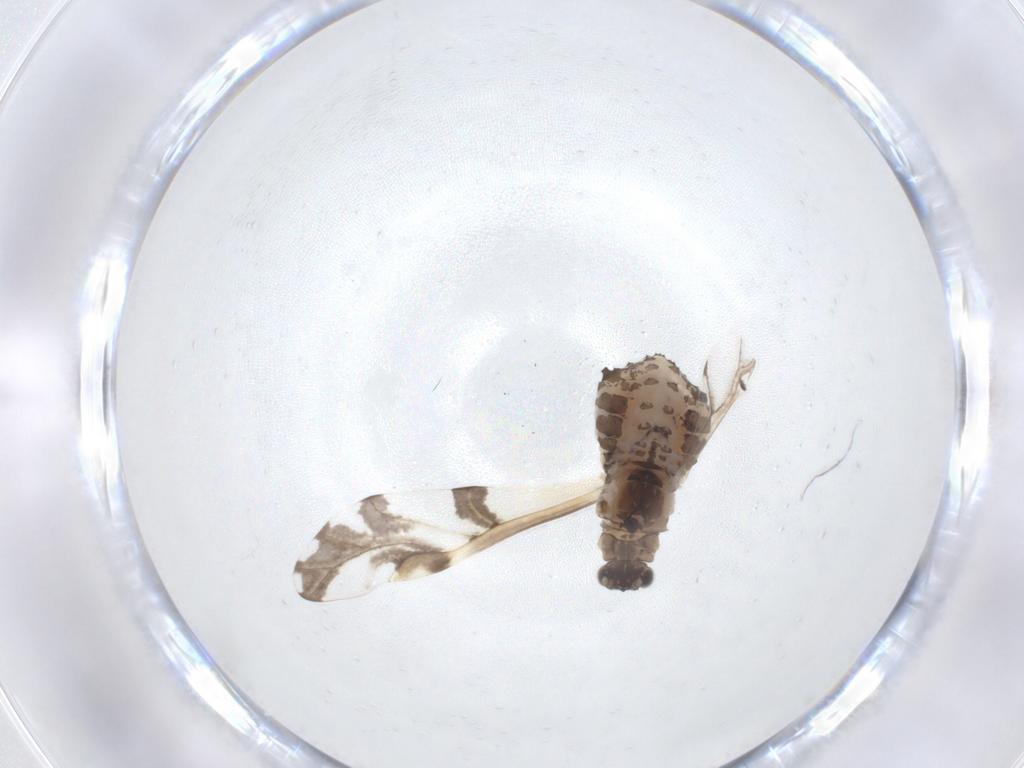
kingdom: Animalia
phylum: Arthropoda
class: Insecta
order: Hemiptera
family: Aphididae
